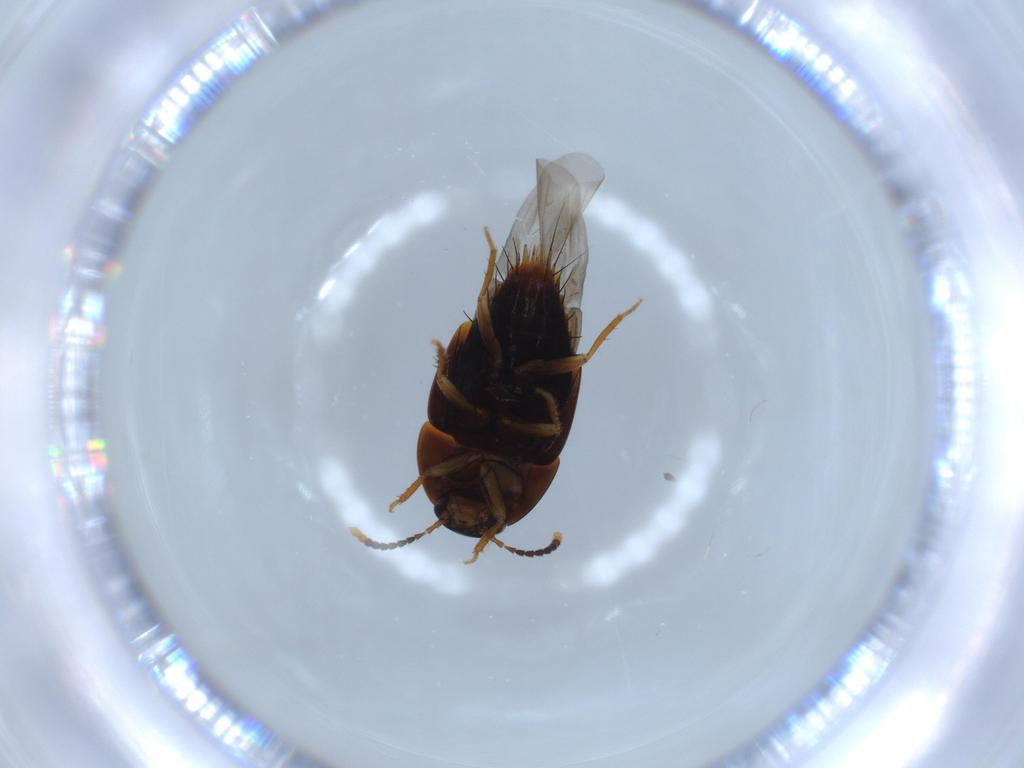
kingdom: Animalia
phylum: Arthropoda
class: Insecta
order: Coleoptera
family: Staphylinidae
